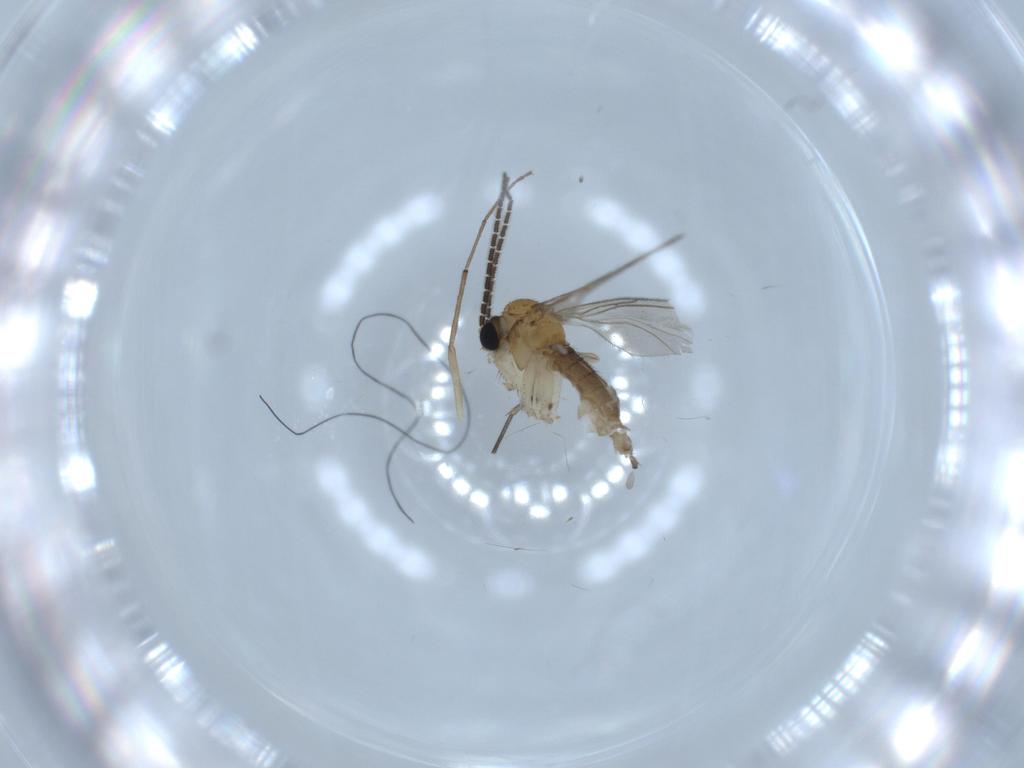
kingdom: Animalia
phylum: Arthropoda
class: Insecta
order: Diptera
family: Sciaridae
